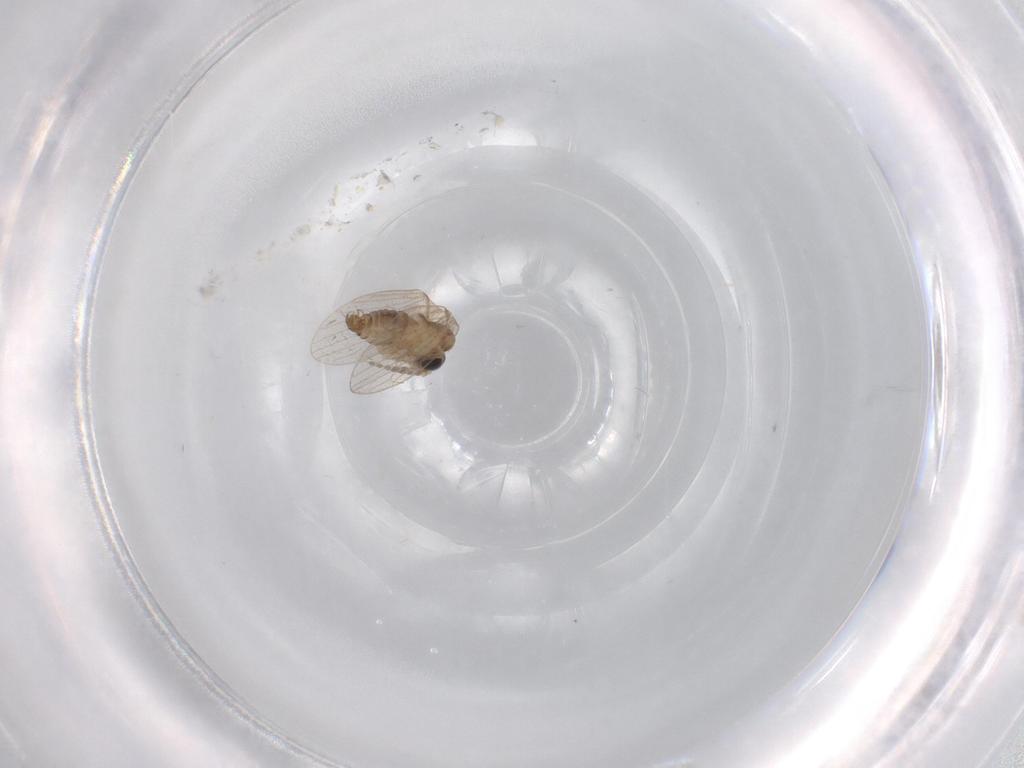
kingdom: Animalia
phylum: Arthropoda
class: Insecta
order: Diptera
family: Psychodidae
